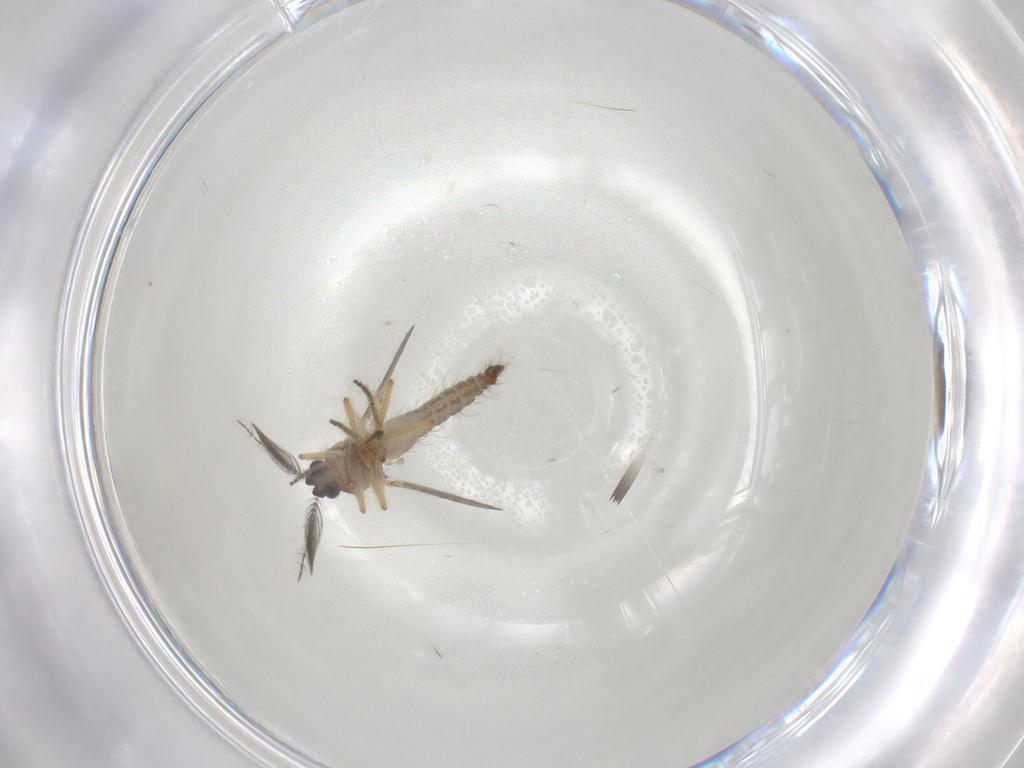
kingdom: Animalia
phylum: Arthropoda
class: Insecta
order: Diptera
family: Ceratopogonidae
